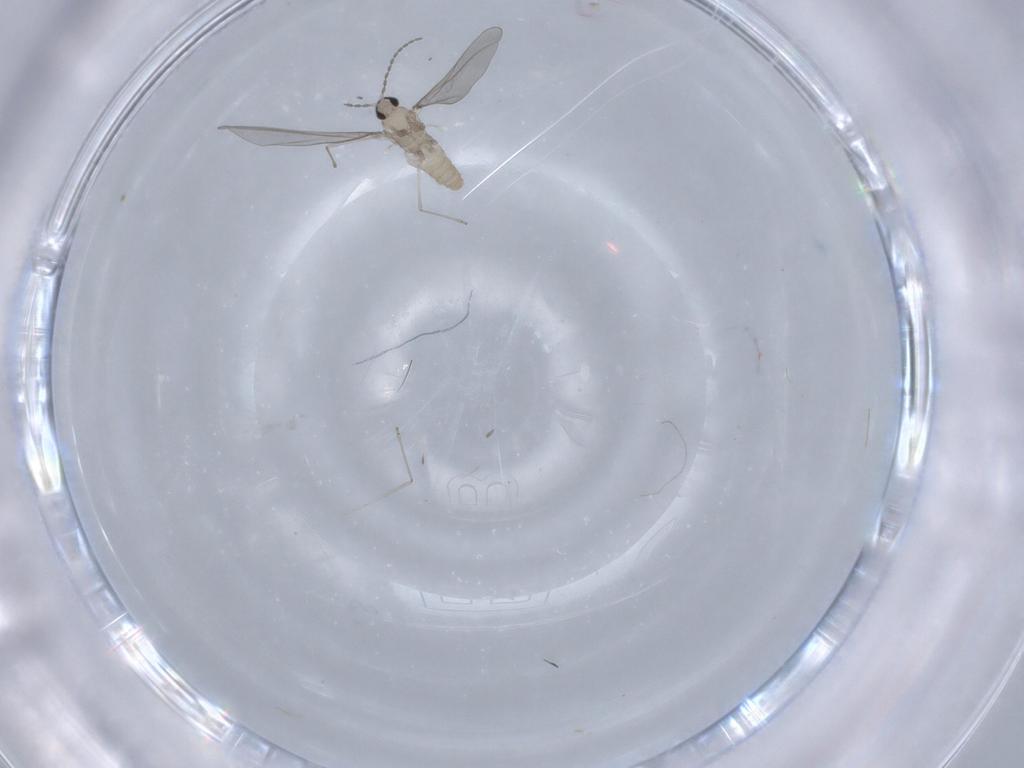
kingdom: Animalia
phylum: Arthropoda
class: Insecta
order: Diptera
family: Cecidomyiidae
